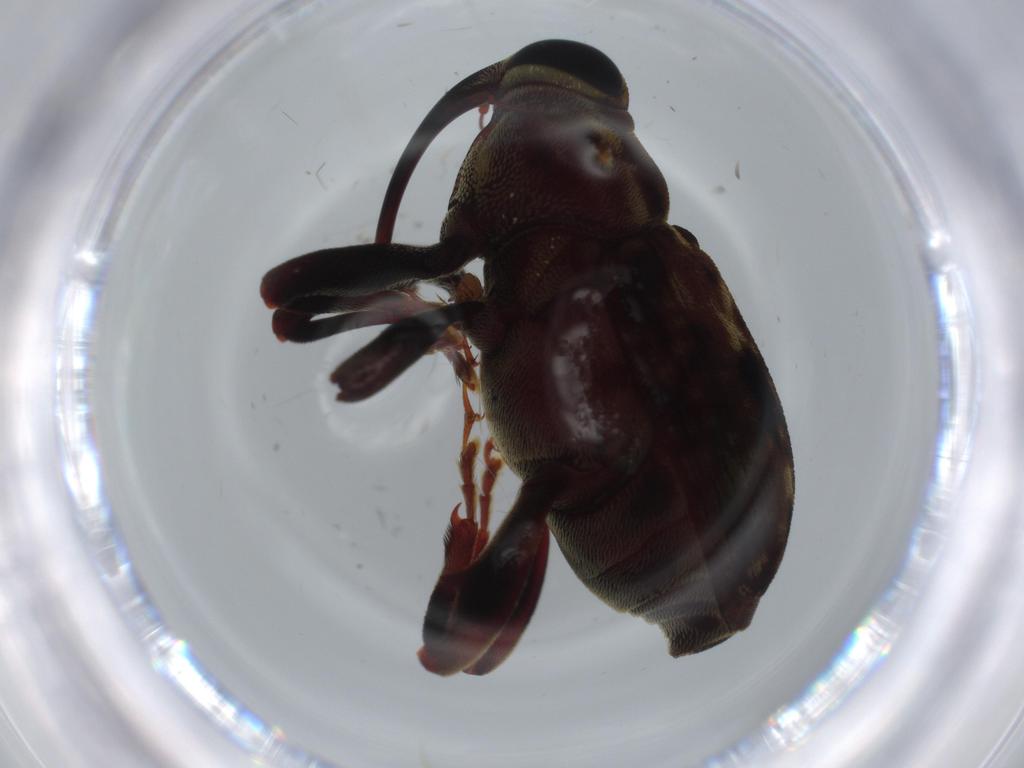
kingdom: Animalia
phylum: Arthropoda
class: Insecta
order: Coleoptera
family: Curculionidae
